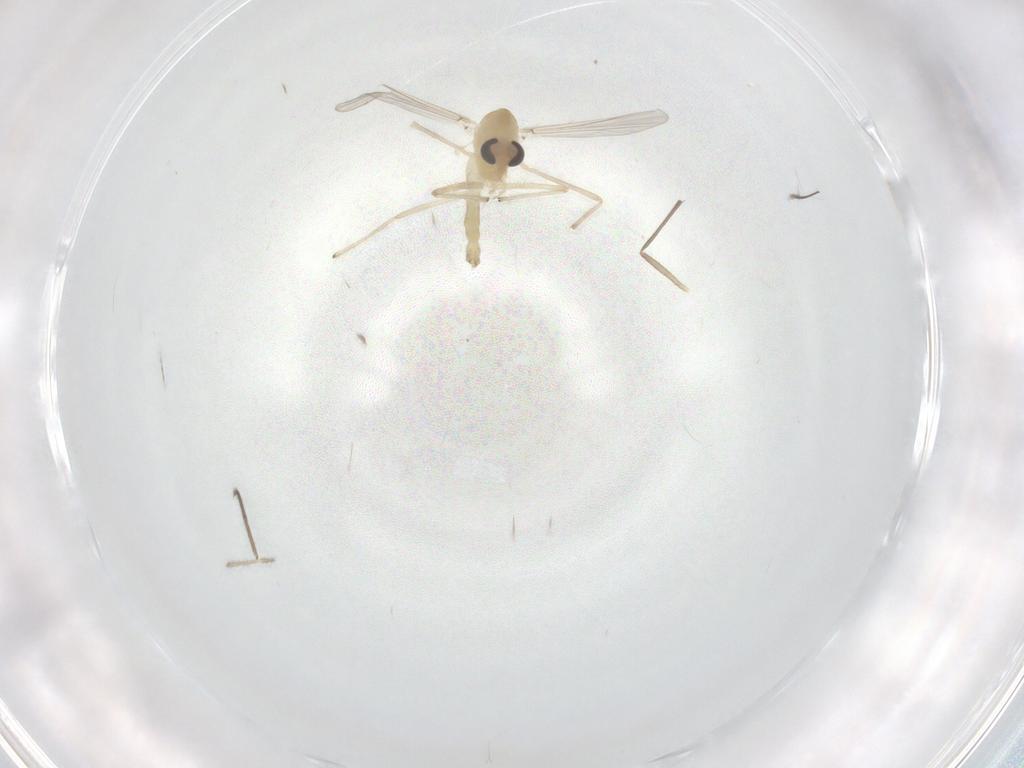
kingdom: Animalia
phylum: Arthropoda
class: Insecta
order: Diptera
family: Chironomidae
